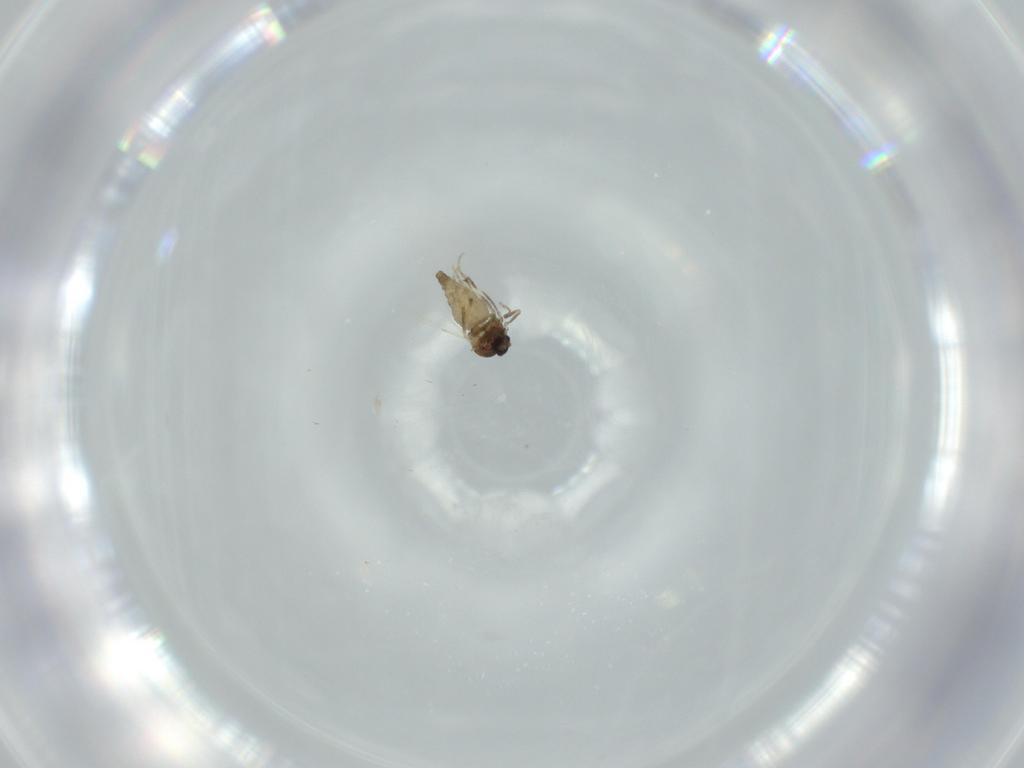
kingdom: Animalia
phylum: Arthropoda
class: Insecta
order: Diptera
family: Ceratopogonidae
